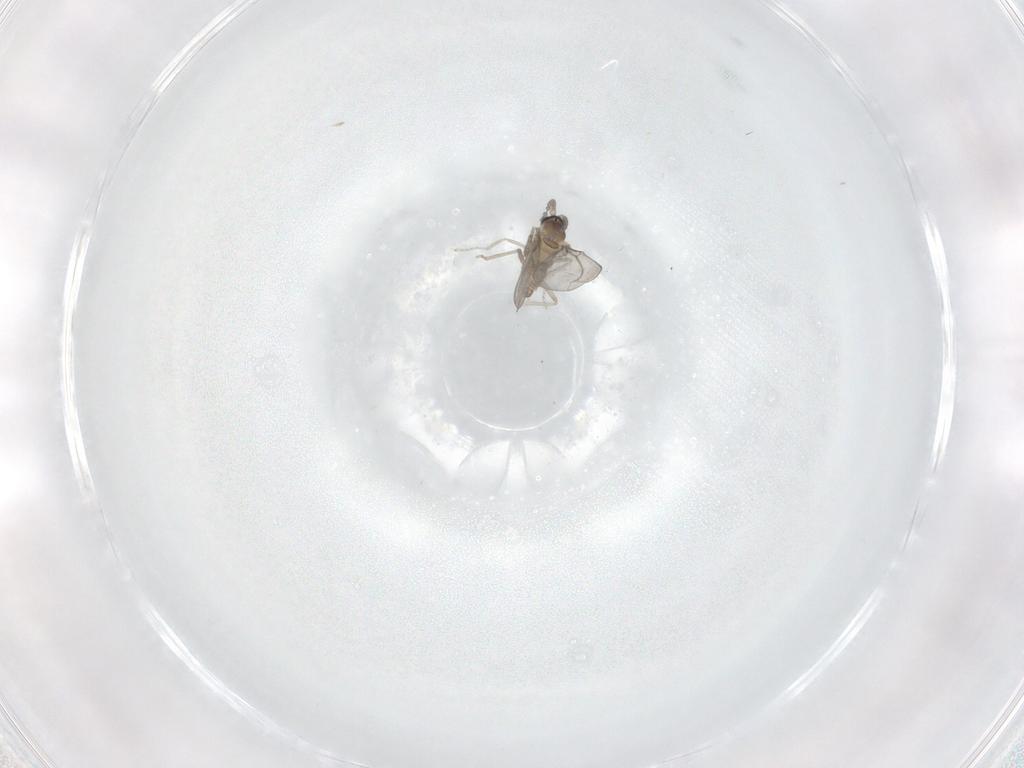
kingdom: Animalia
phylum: Arthropoda
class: Insecta
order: Diptera
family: Cecidomyiidae
